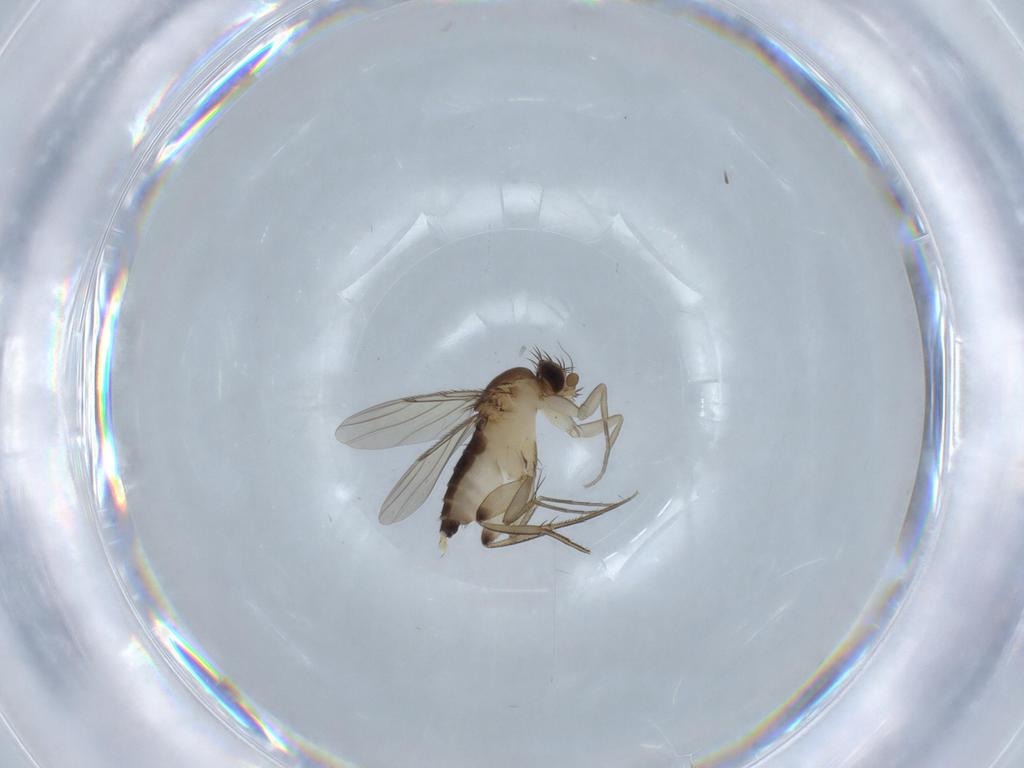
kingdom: Animalia
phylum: Arthropoda
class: Insecta
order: Diptera
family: Phoridae
